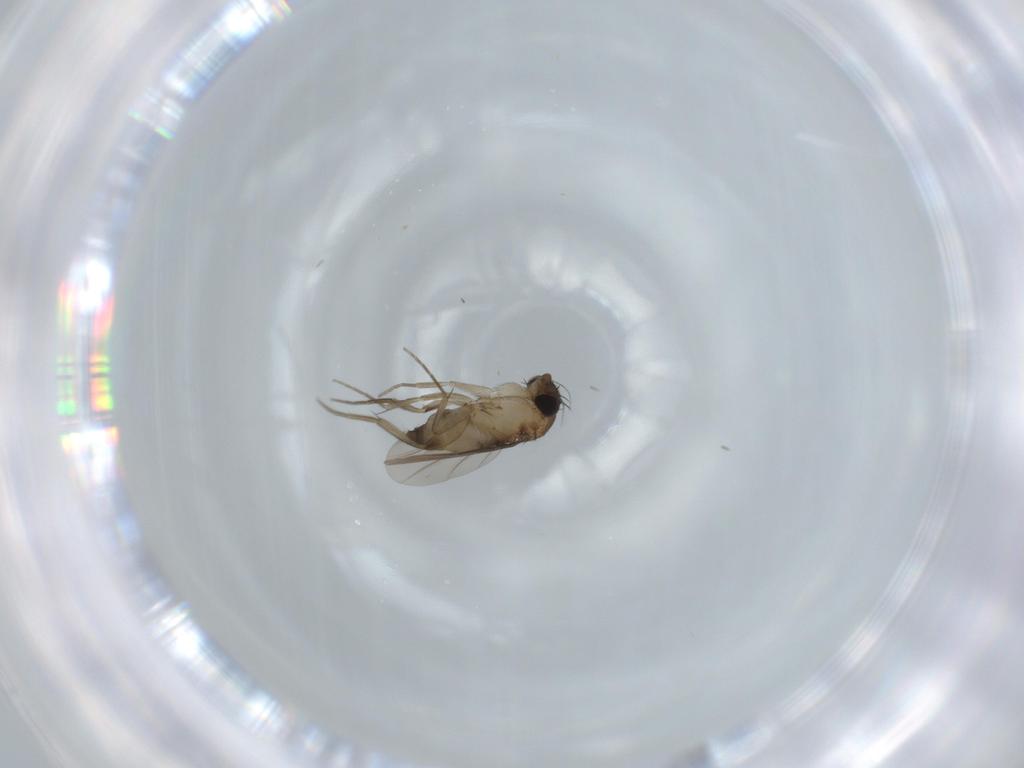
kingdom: Animalia
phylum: Arthropoda
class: Insecta
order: Diptera
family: Phoridae
